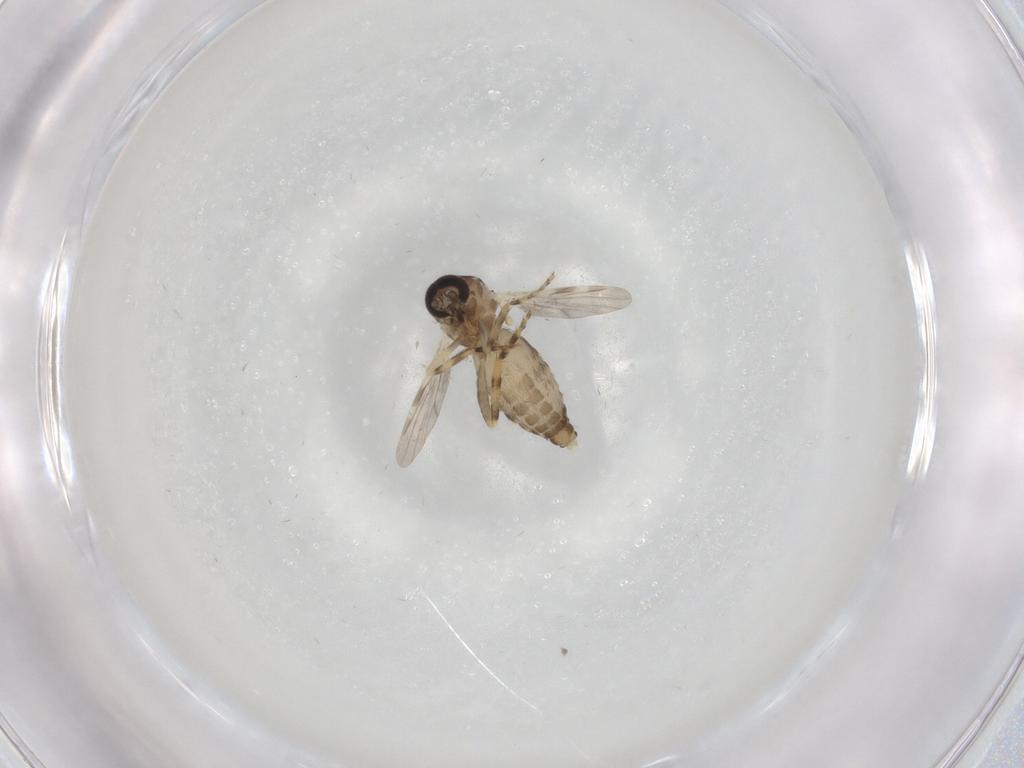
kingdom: Animalia
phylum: Arthropoda
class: Insecta
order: Diptera
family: Ceratopogonidae
